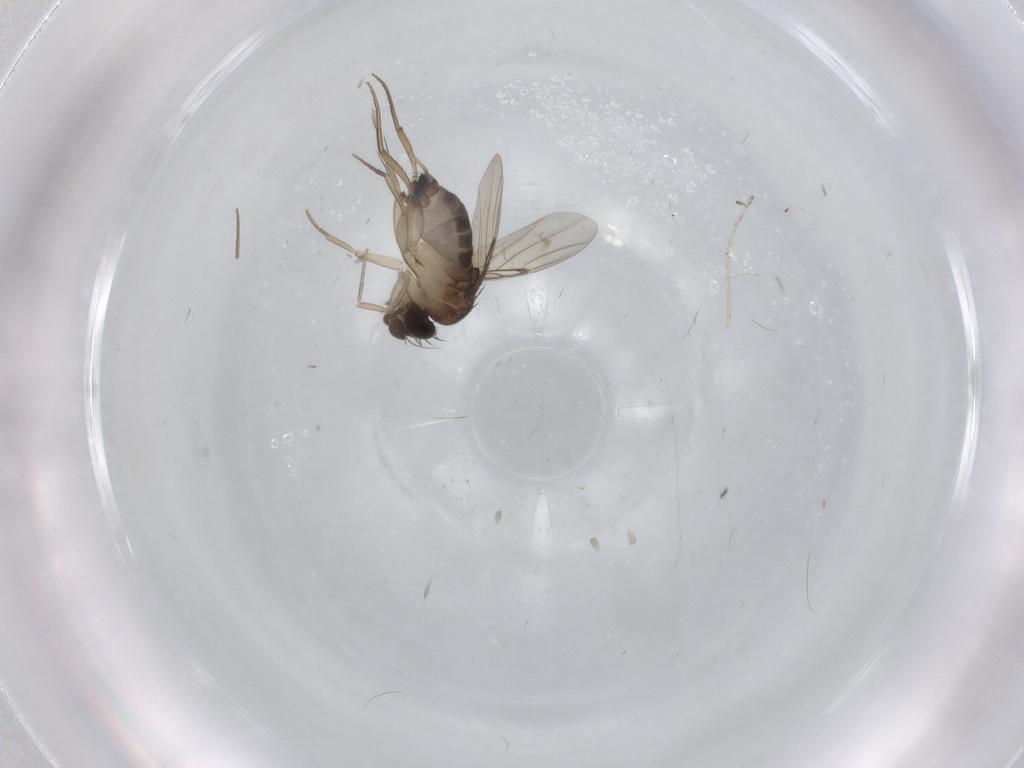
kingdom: Animalia
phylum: Arthropoda
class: Insecta
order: Diptera
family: Phoridae
